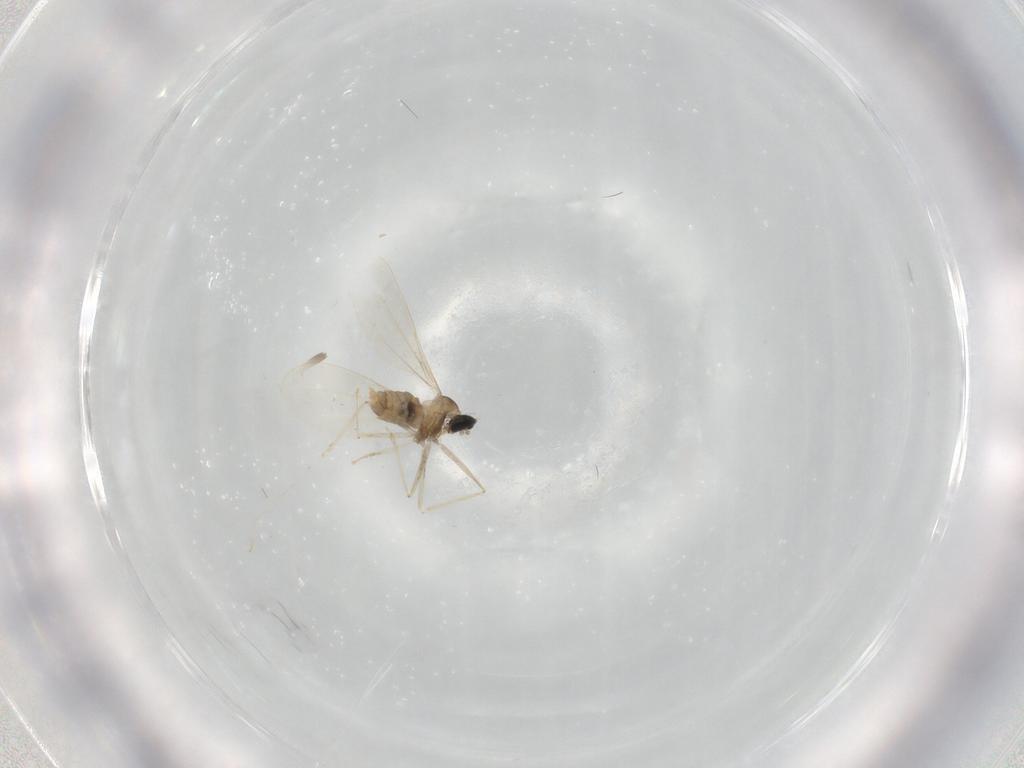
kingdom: Animalia
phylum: Arthropoda
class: Insecta
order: Diptera
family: Cecidomyiidae
